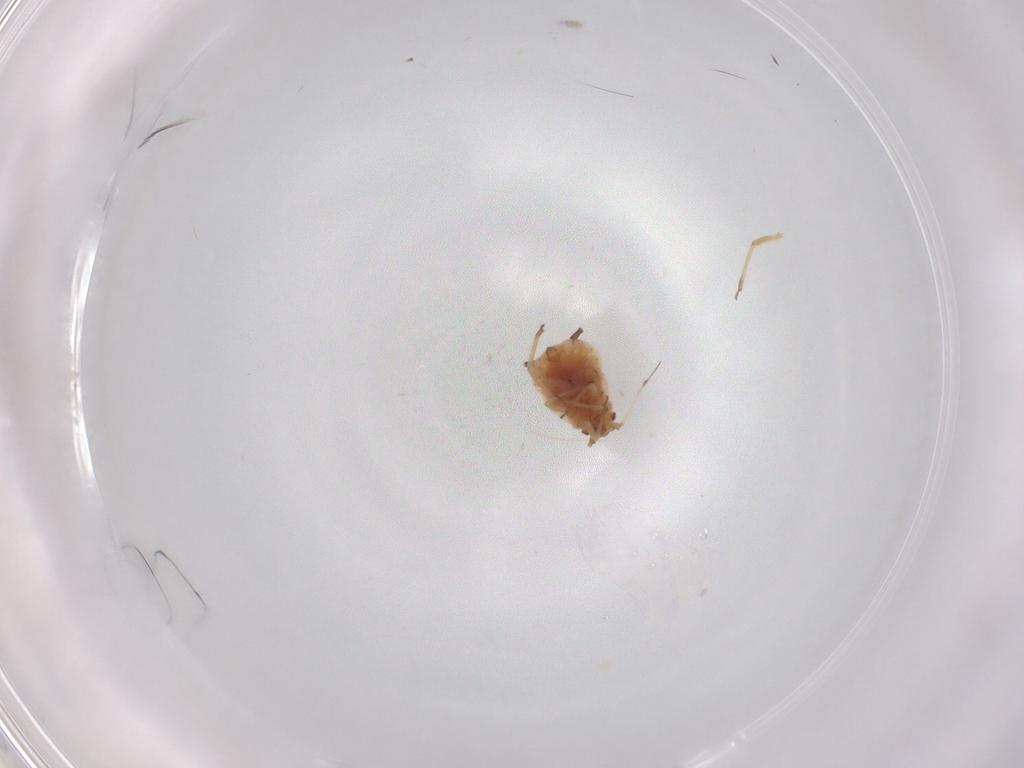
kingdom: Animalia
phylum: Arthropoda
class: Insecta
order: Hemiptera
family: Aphididae
